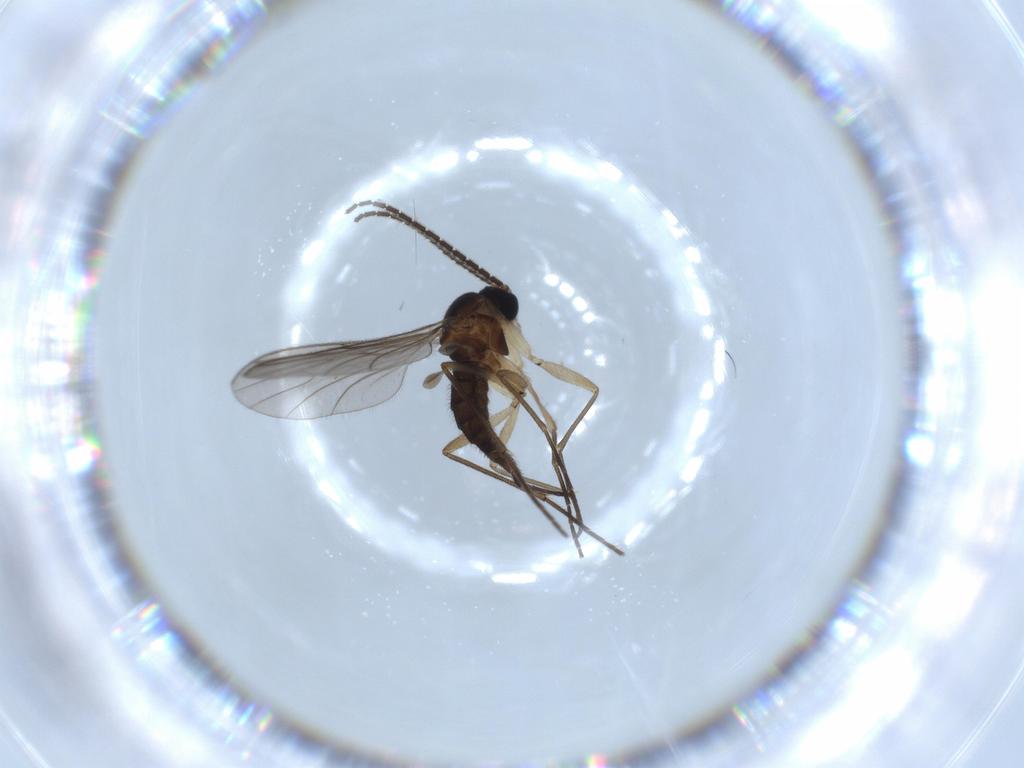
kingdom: Animalia
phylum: Arthropoda
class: Insecta
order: Diptera
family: Sciaridae
